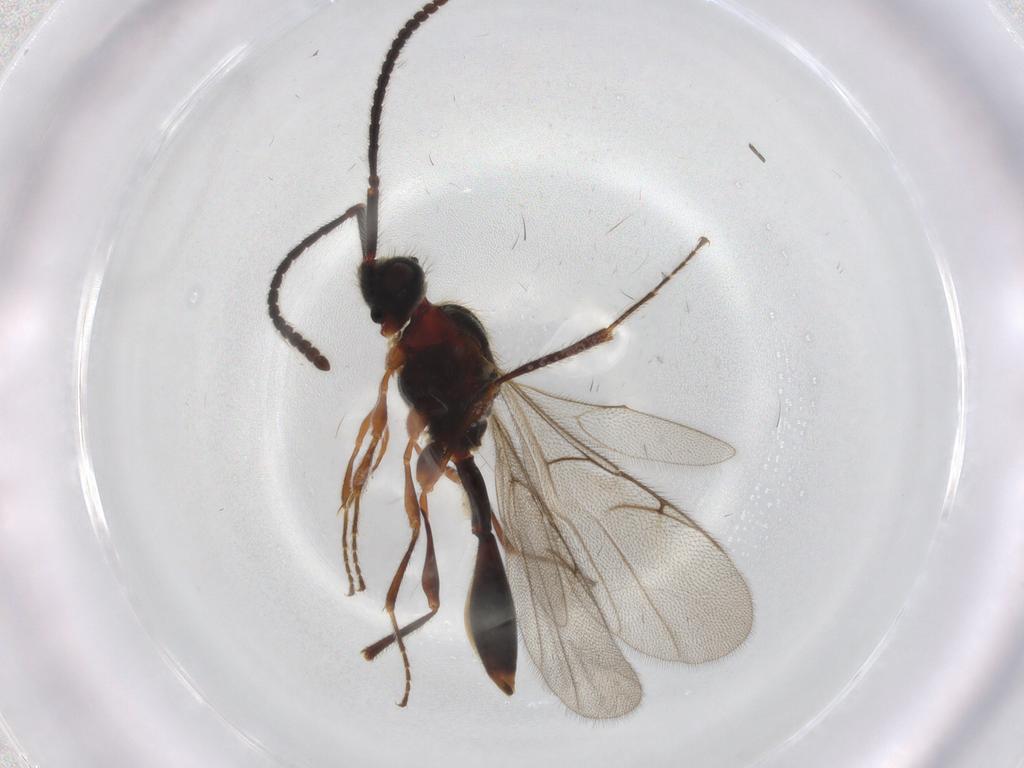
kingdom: Animalia
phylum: Arthropoda
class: Insecta
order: Hymenoptera
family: Diapriidae
